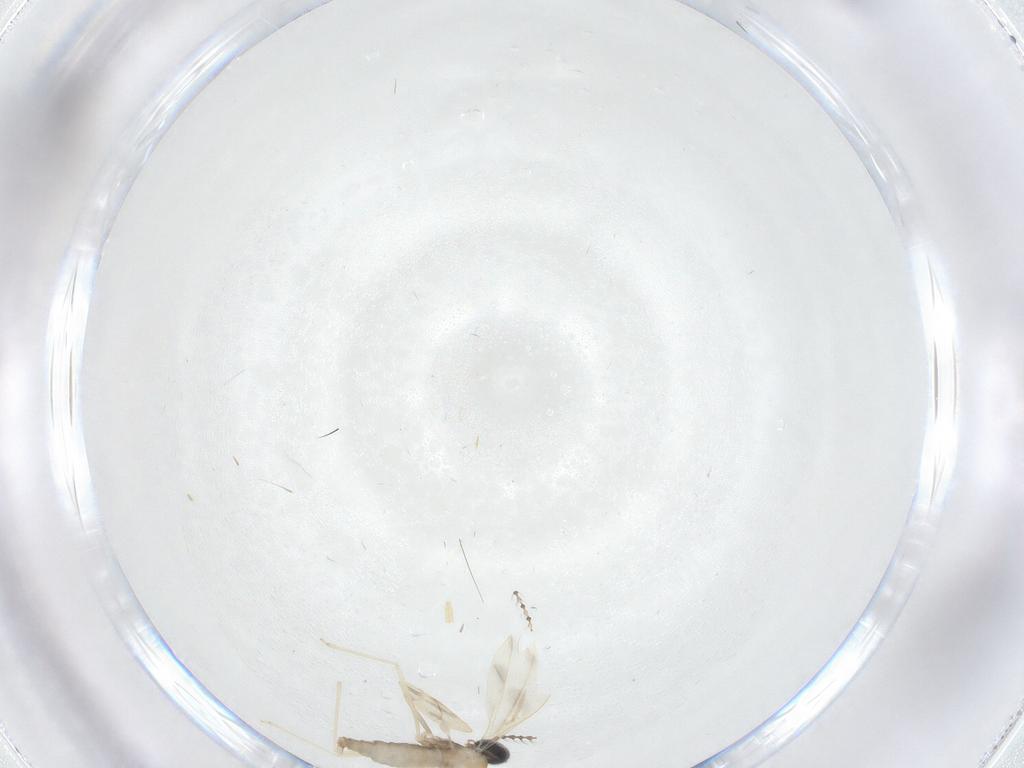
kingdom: Animalia
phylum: Arthropoda
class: Insecta
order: Diptera
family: Cecidomyiidae
